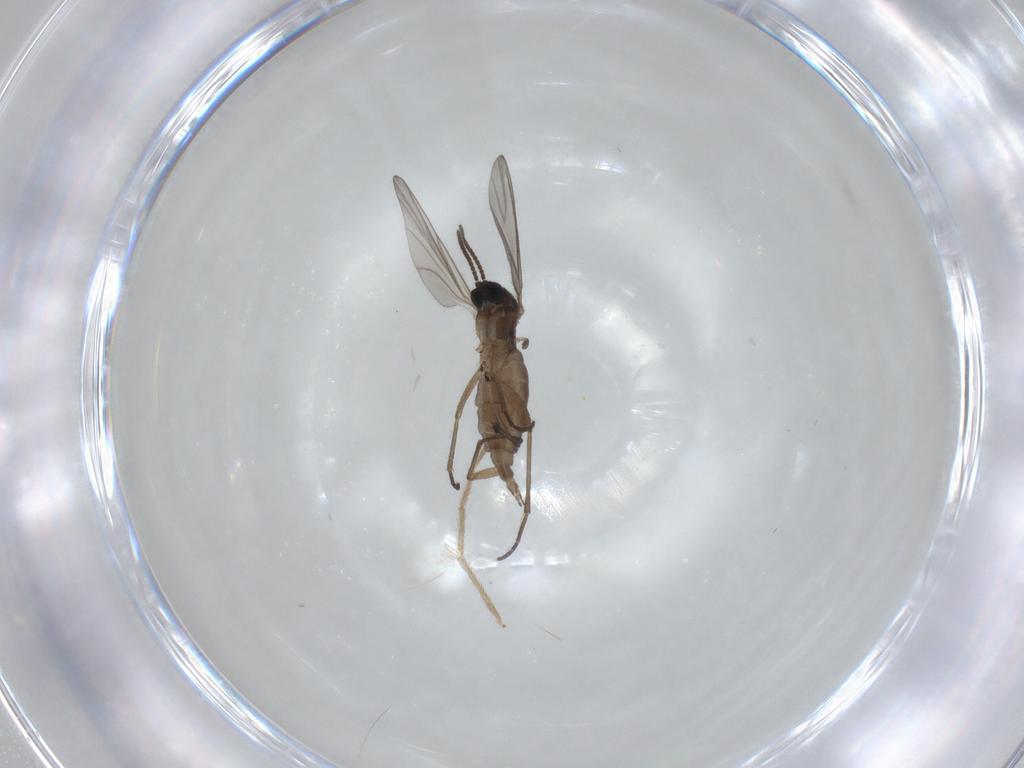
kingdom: Animalia
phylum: Arthropoda
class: Insecta
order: Diptera
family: Sciaridae
